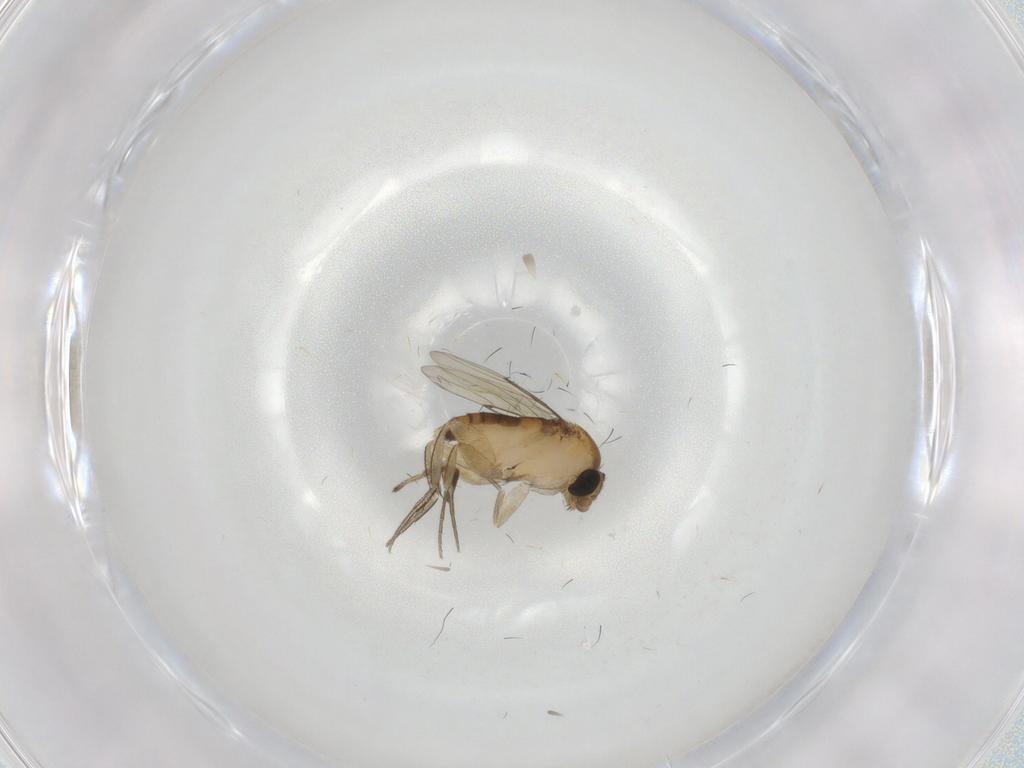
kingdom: Animalia
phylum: Arthropoda
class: Insecta
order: Diptera
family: Milichiidae
